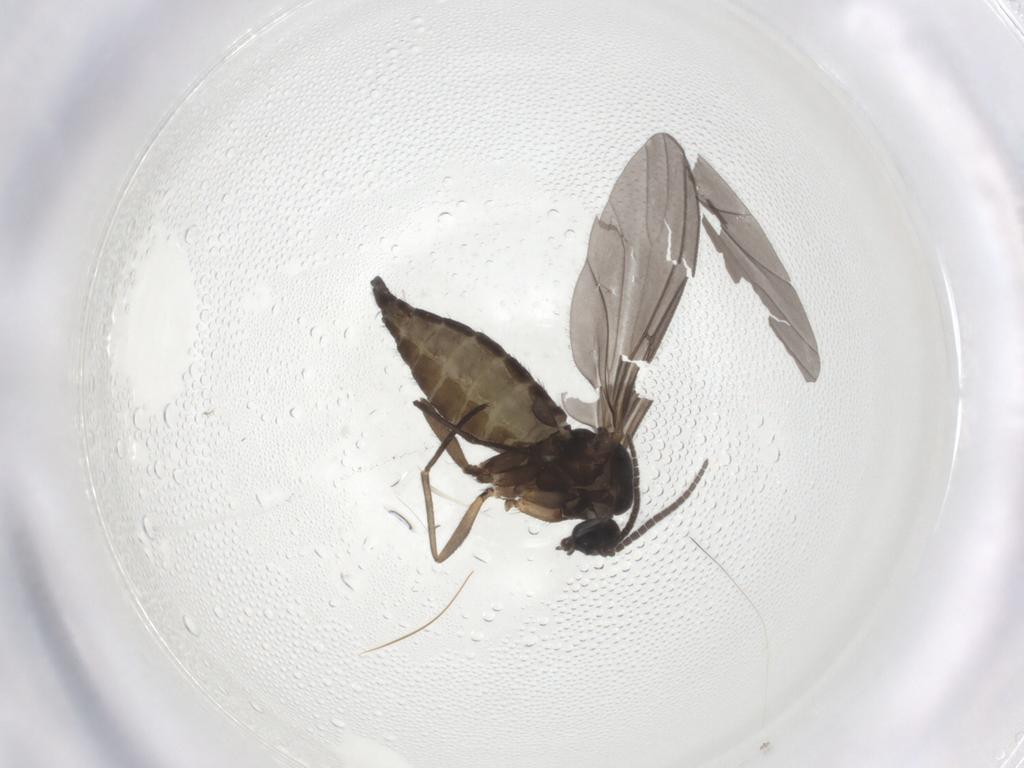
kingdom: Animalia
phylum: Arthropoda
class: Insecta
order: Diptera
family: Sciaridae
